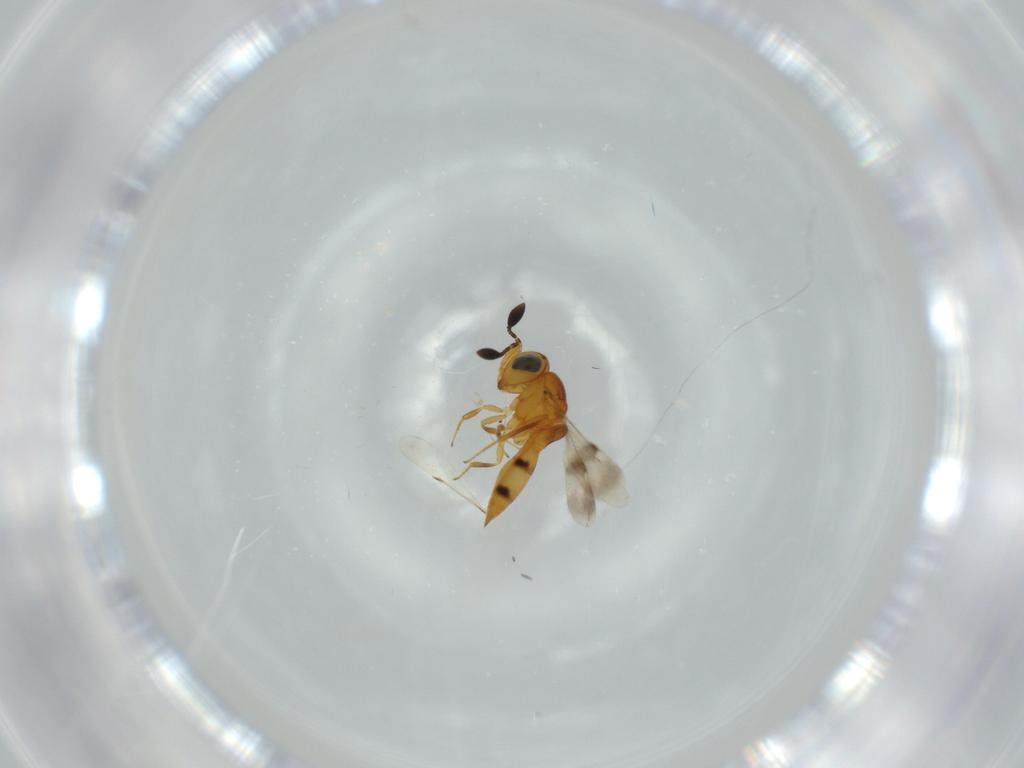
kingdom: Animalia
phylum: Arthropoda
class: Insecta
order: Hymenoptera
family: Scelionidae
